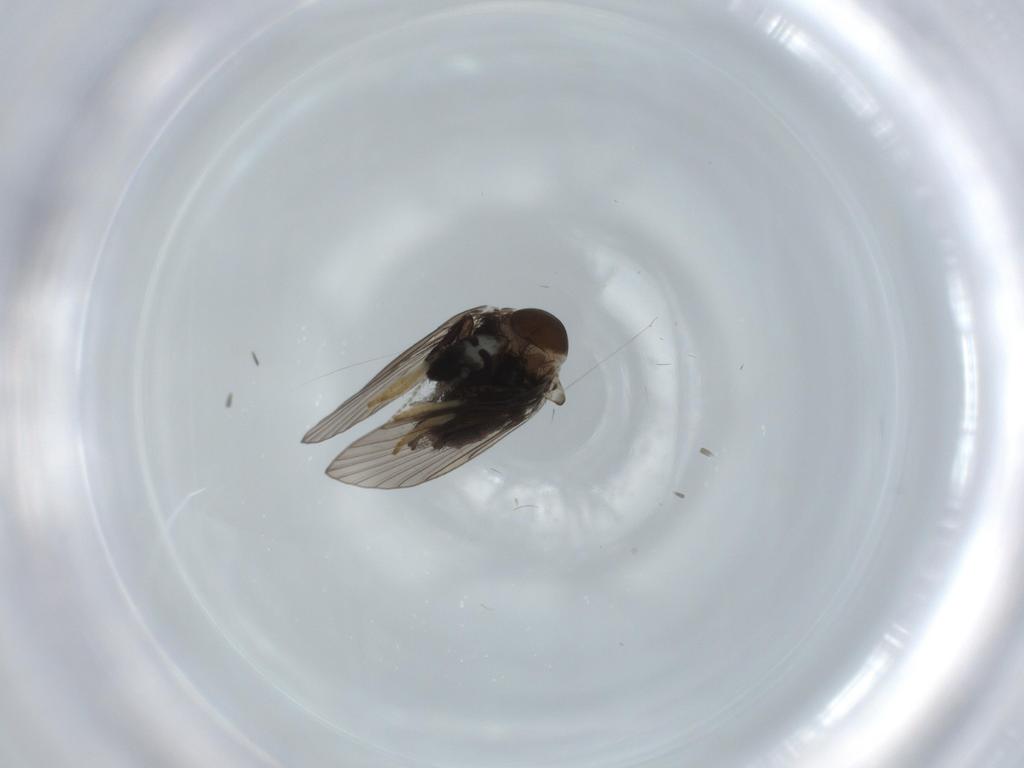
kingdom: Animalia
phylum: Arthropoda
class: Insecta
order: Diptera
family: Psychodidae
